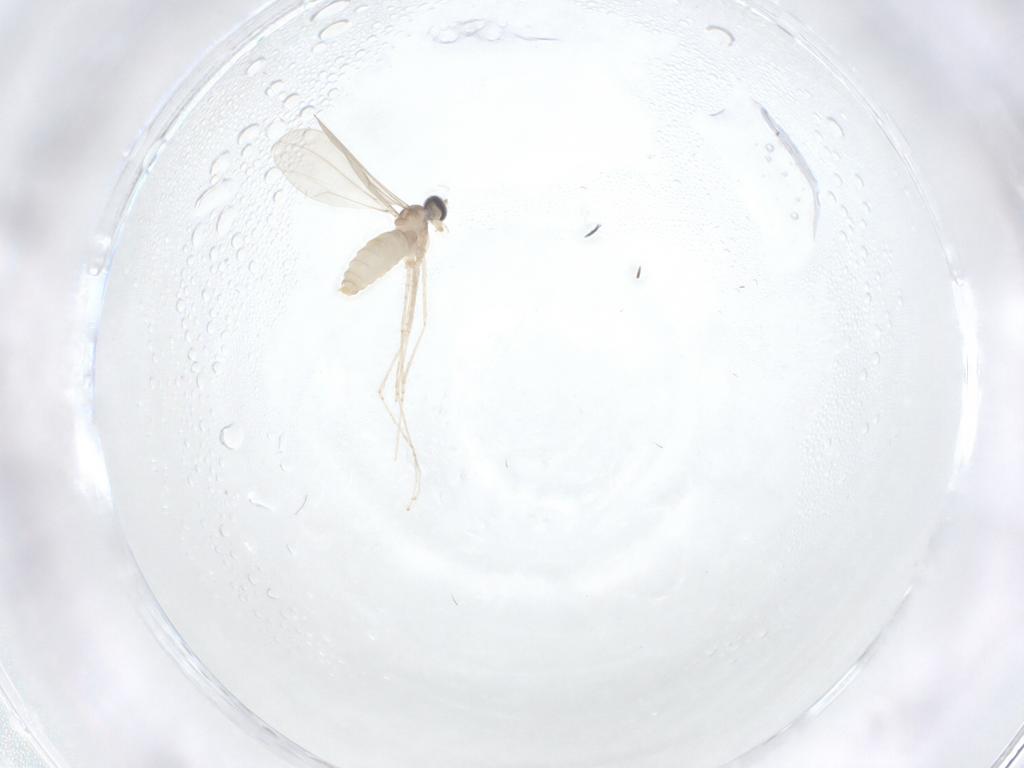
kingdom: Animalia
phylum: Arthropoda
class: Insecta
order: Diptera
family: Cecidomyiidae
